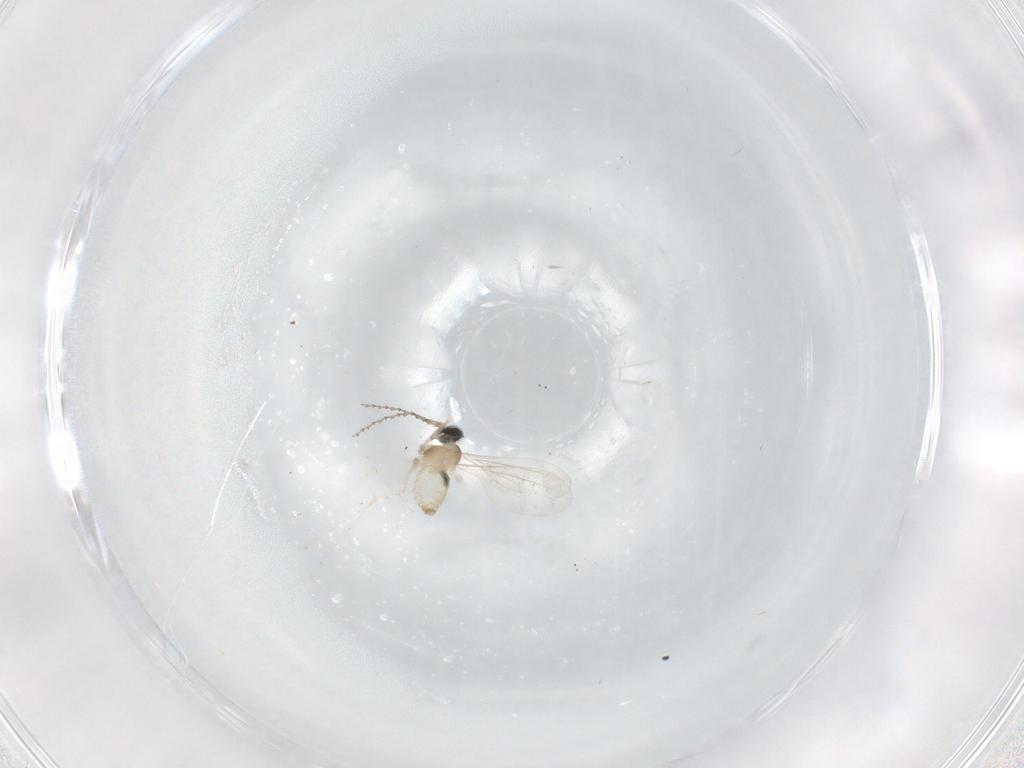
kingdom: Animalia
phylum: Arthropoda
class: Insecta
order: Diptera
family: Cecidomyiidae
